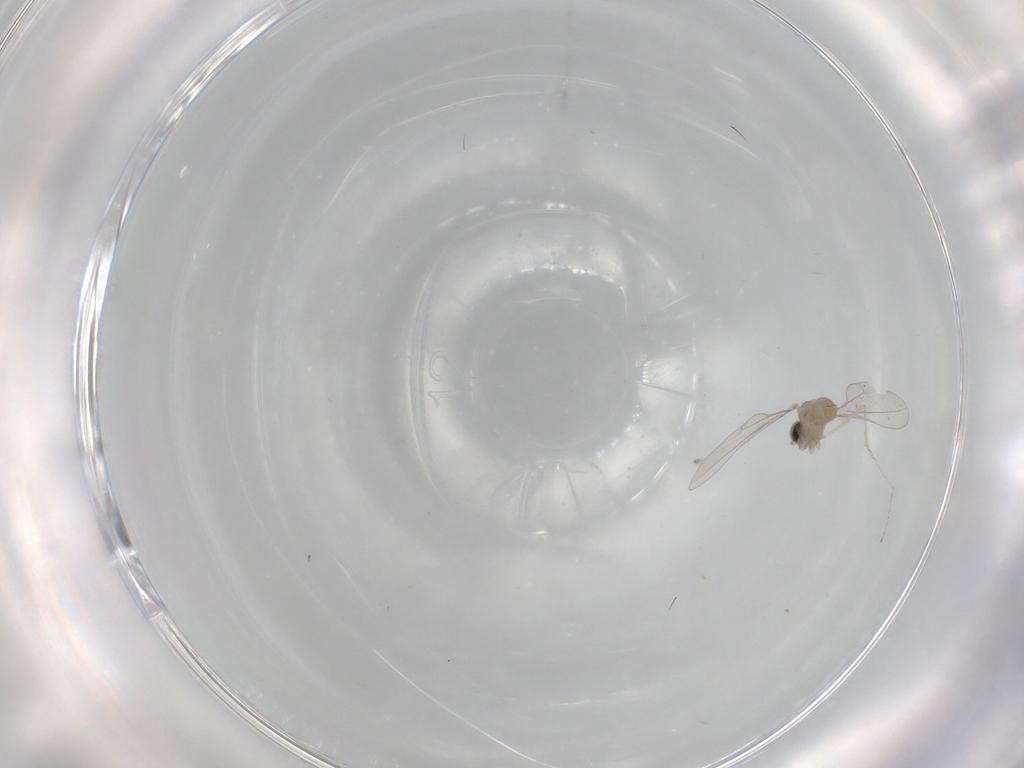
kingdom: Animalia
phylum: Arthropoda
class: Insecta
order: Diptera
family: Ceratopogonidae
